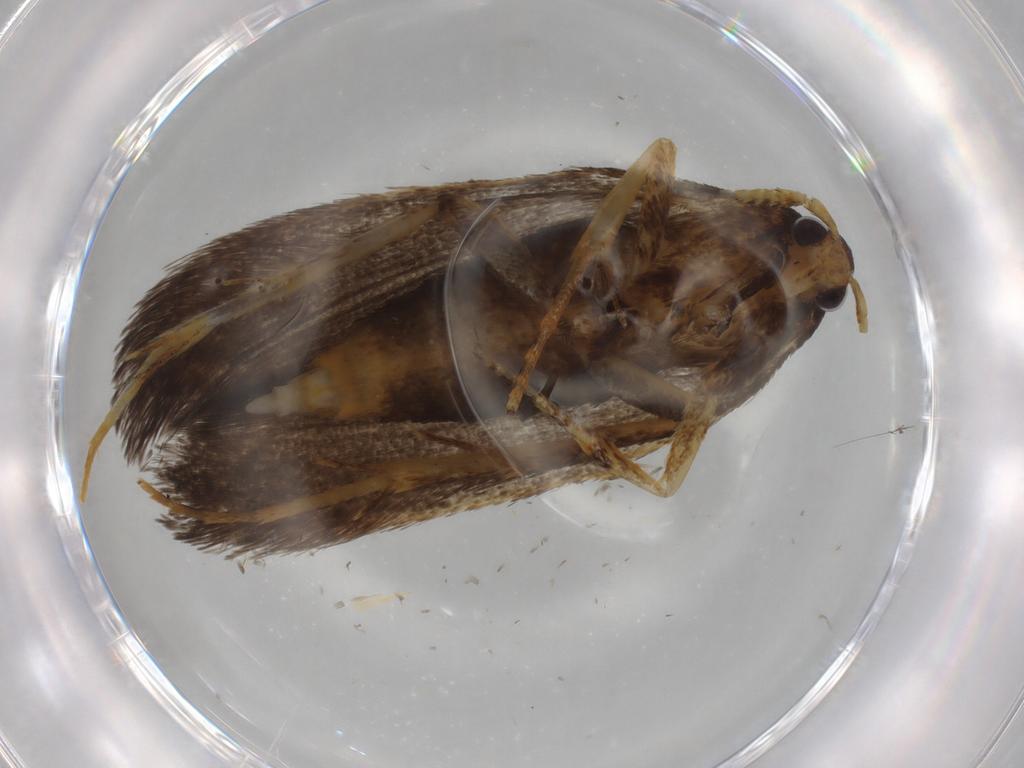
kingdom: Animalia
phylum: Arthropoda
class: Insecta
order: Lepidoptera
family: Lecithoceridae
